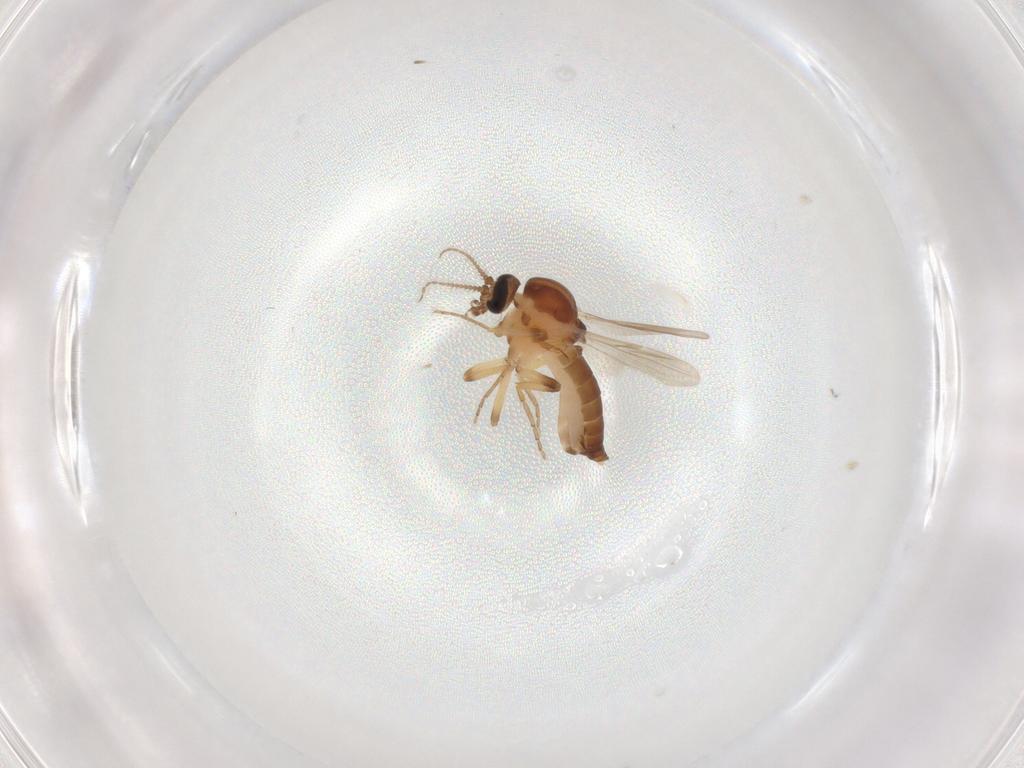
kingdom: Animalia
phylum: Arthropoda
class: Insecta
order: Diptera
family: Ceratopogonidae
